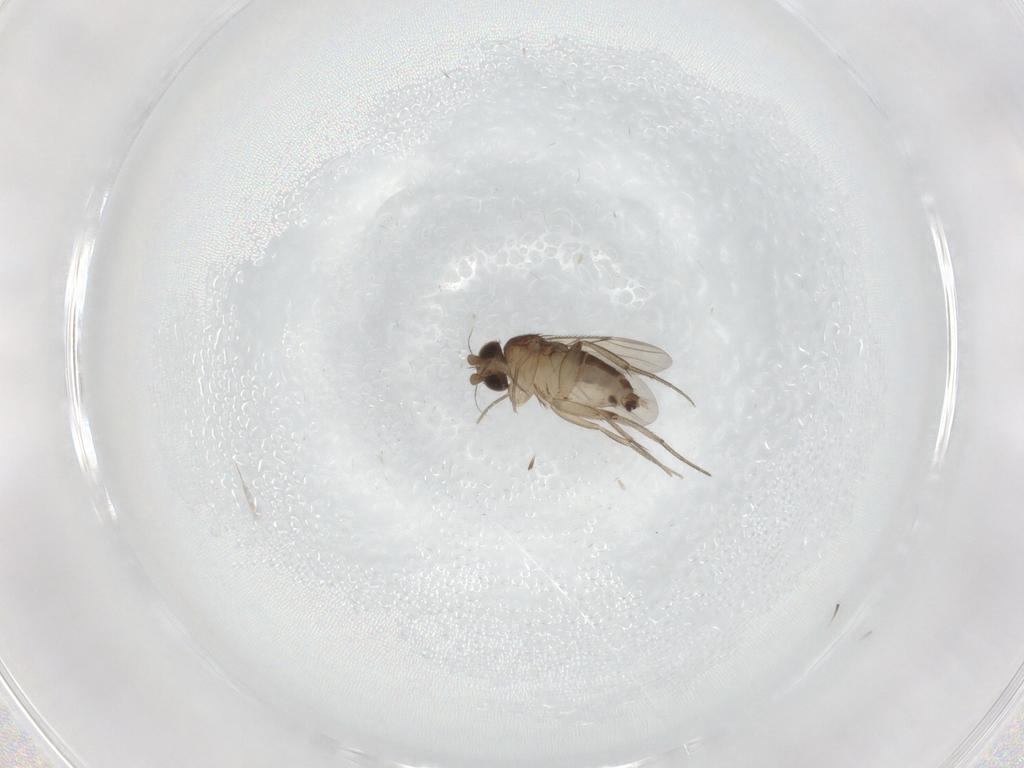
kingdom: Animalia
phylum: Arthropoda
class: Insecta
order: Diptera
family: Phoridae
